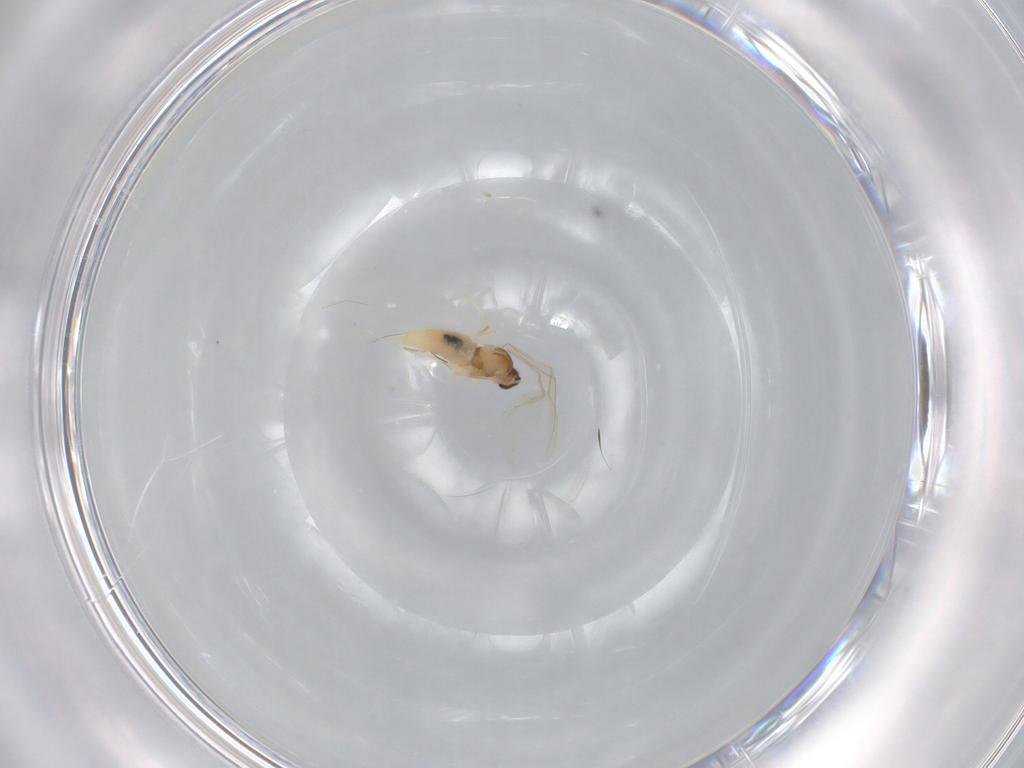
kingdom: Animalia
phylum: Arthropoda
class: Insecta
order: Diptera
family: Cecidomyiidae
